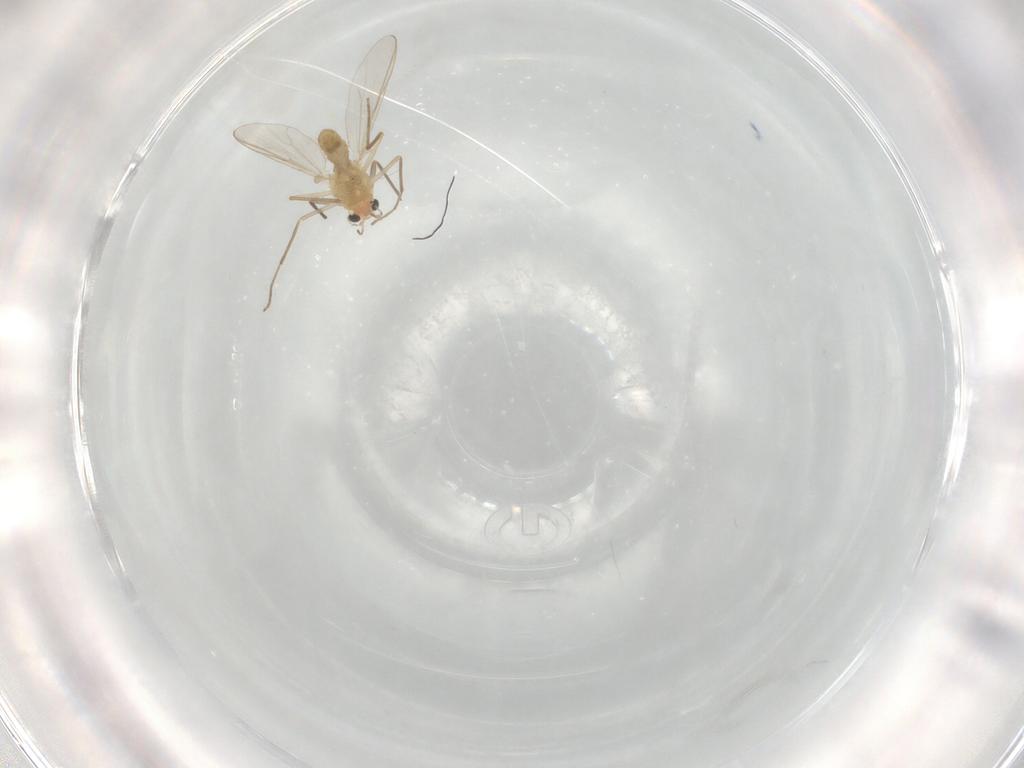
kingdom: Animalia
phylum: Arthropoda
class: Insecta
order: Diptera
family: Chironomidae
